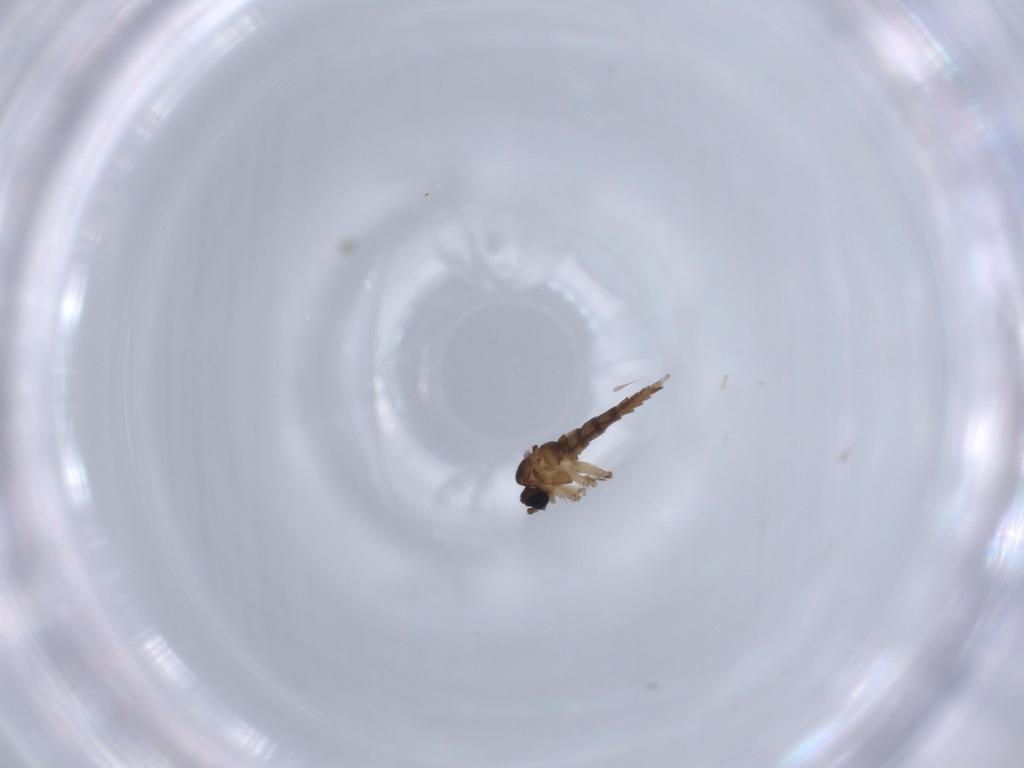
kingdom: Animalia
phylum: Arthropoda
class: Insecta
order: Diptera
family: Sciaridae
